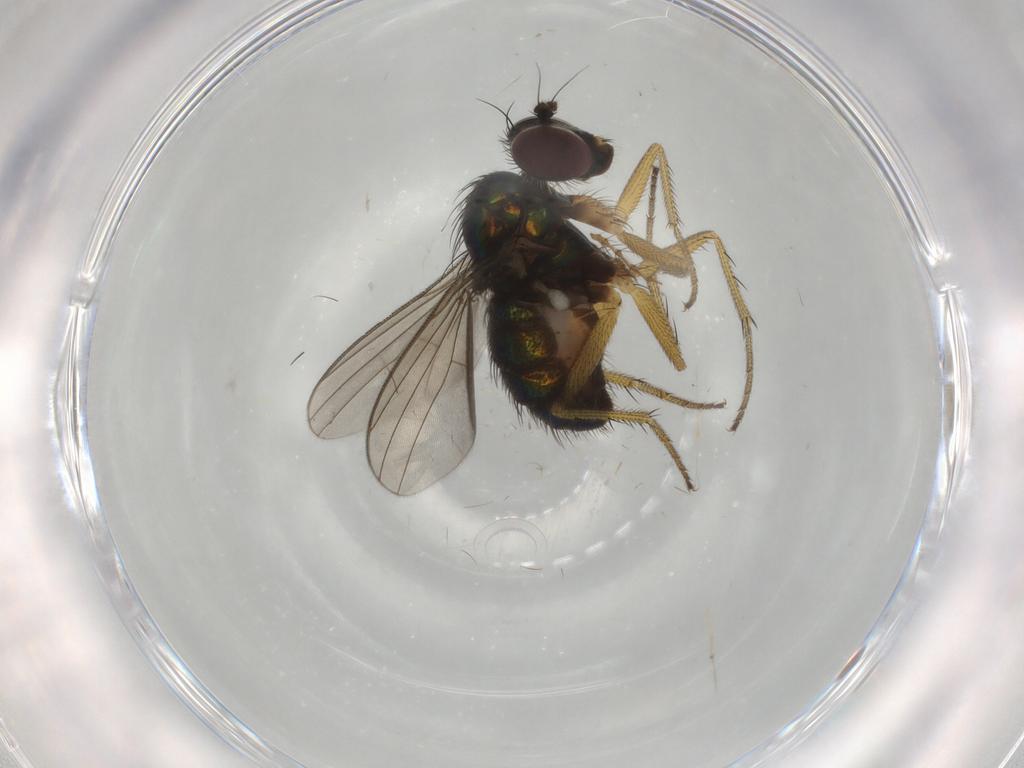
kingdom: Animalia
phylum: Arthropoda
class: Insecta
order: Diptera
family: Dolichopodidae
